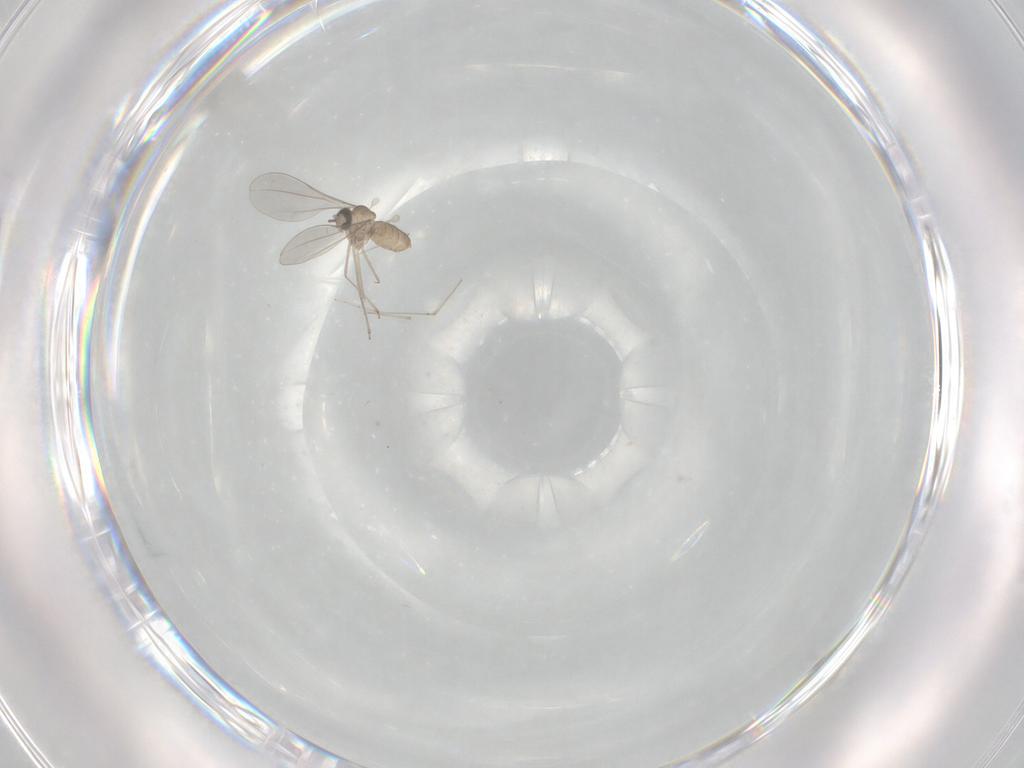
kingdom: Animalia
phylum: Arthropoda
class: Insecta
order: Diptera
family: Cecidomyiidae
